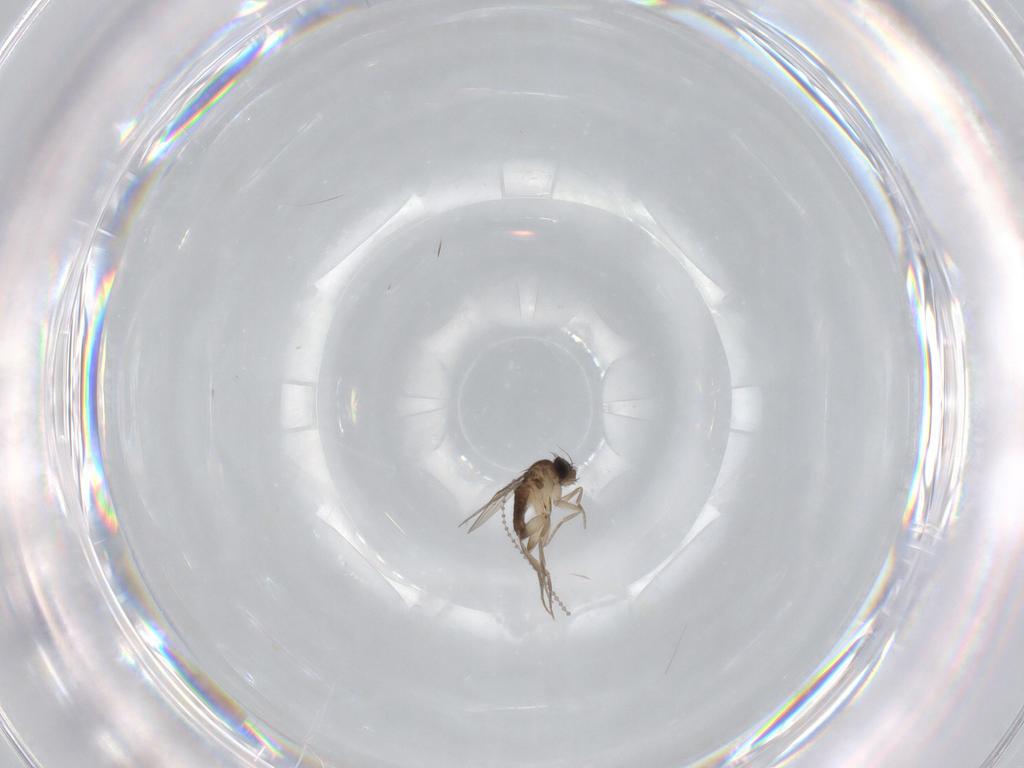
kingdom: Animalia
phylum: Arthropoda
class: Insecta
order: Diptera
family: Phoridae
